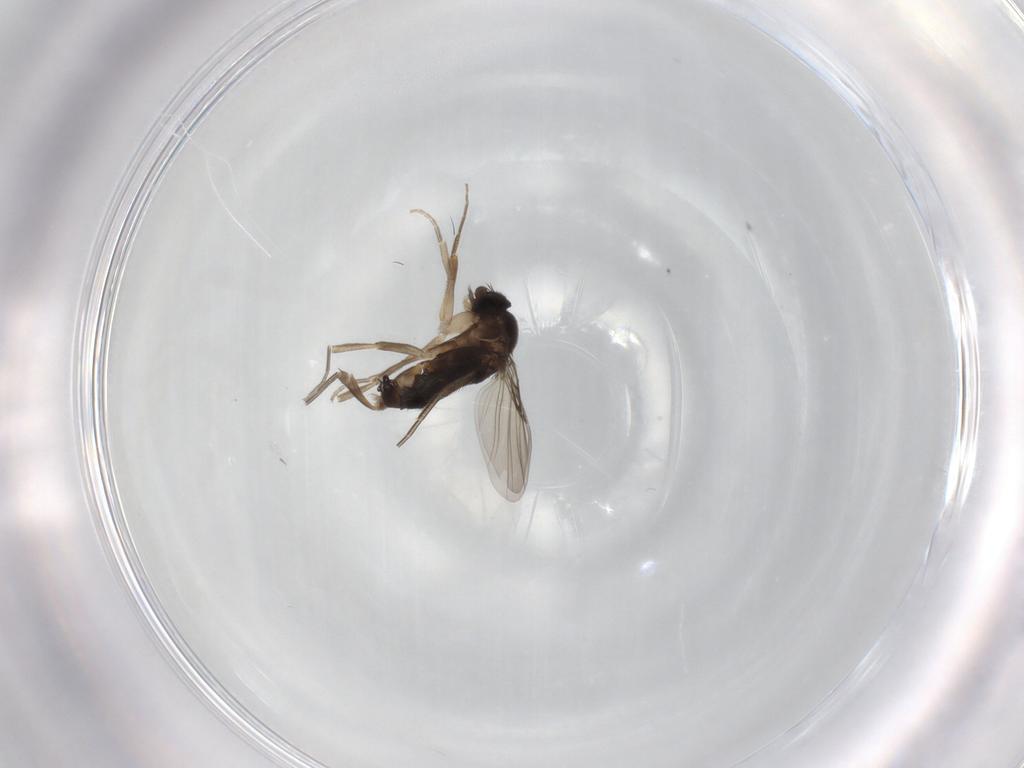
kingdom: Animalia
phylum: Arthropoda
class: Insecta
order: Diptera
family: Phoridae
